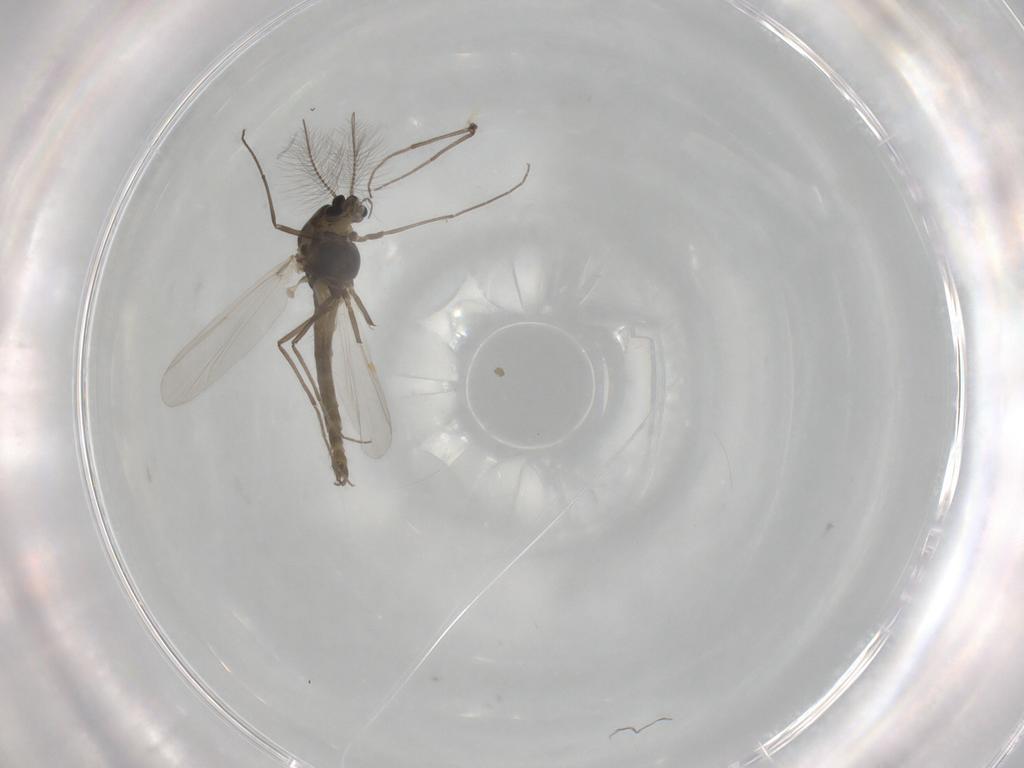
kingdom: Animalia
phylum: Arthropoda
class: Insecta
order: Diptera
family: Chironomidae
